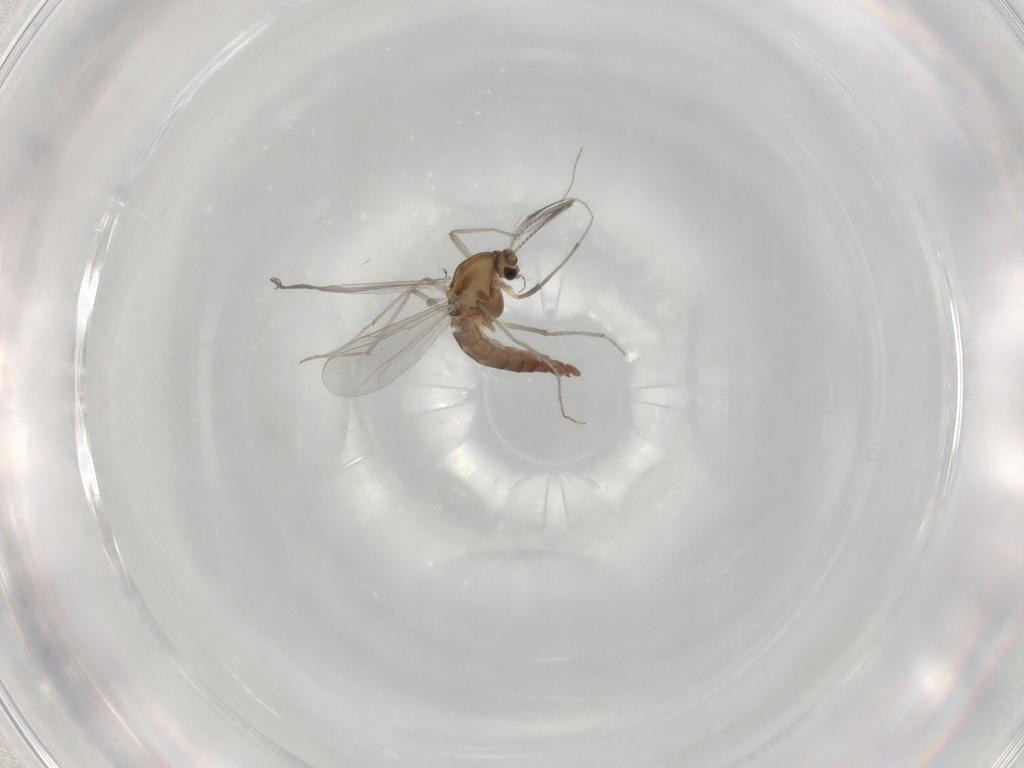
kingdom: Animalia
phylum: Arthropoda
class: Insecta
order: Diptera
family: Chironomidae
